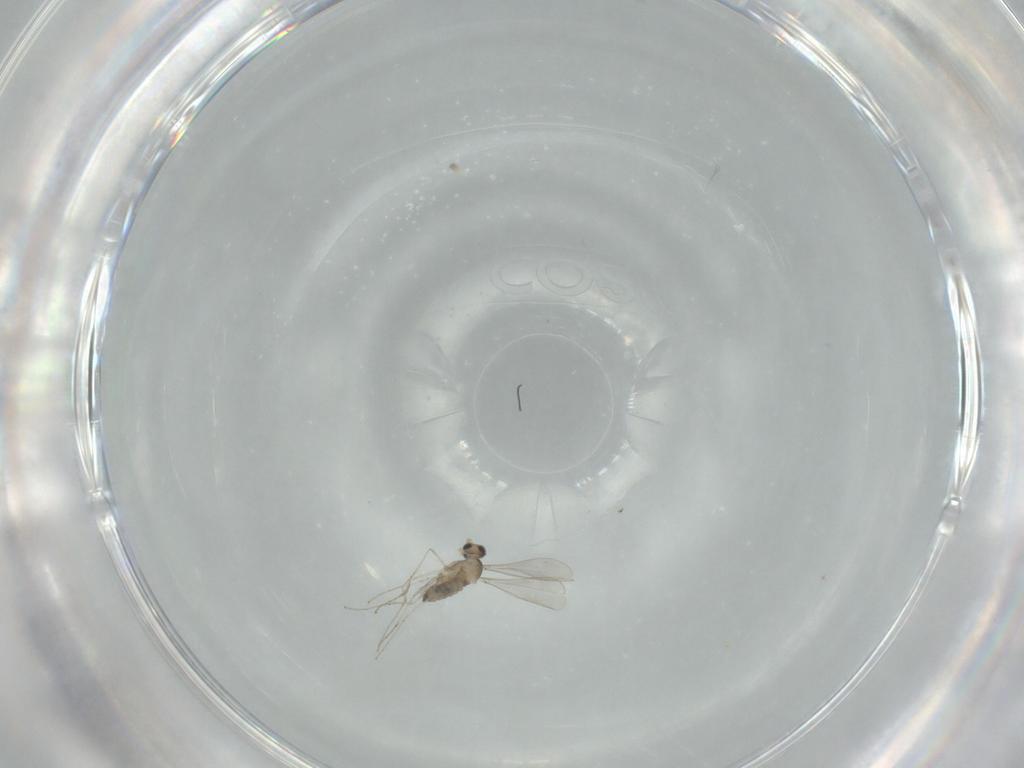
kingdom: Animalia
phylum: Arthropoda
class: Insecta
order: Diptera
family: Cecidomyiidae
